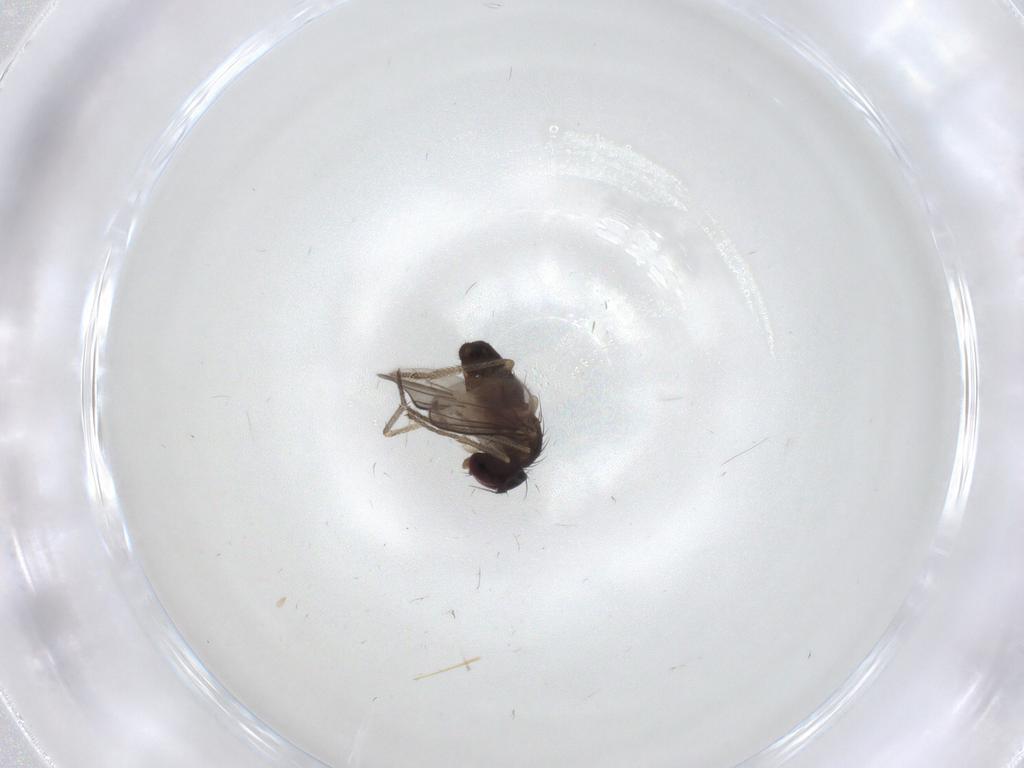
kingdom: Animalia
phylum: Arthropoda
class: Insecta
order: Diptera
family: Dolichopodidae
